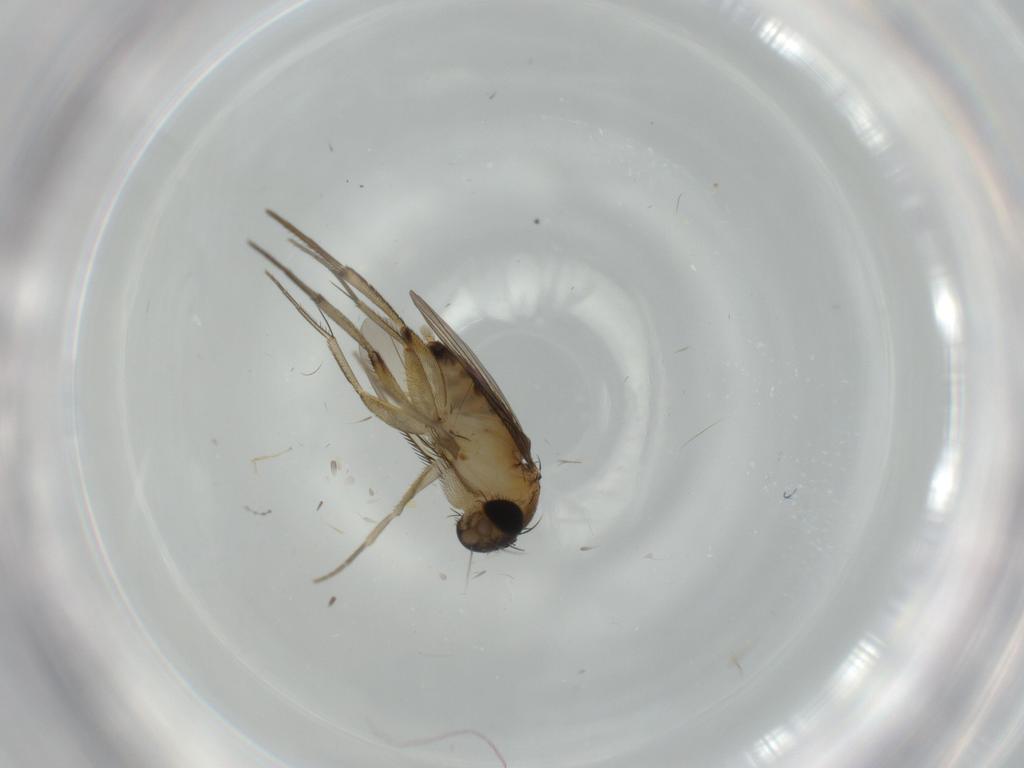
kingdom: Animalia
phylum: Arthropoda
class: Insecta
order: Diptera
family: Phoridae
